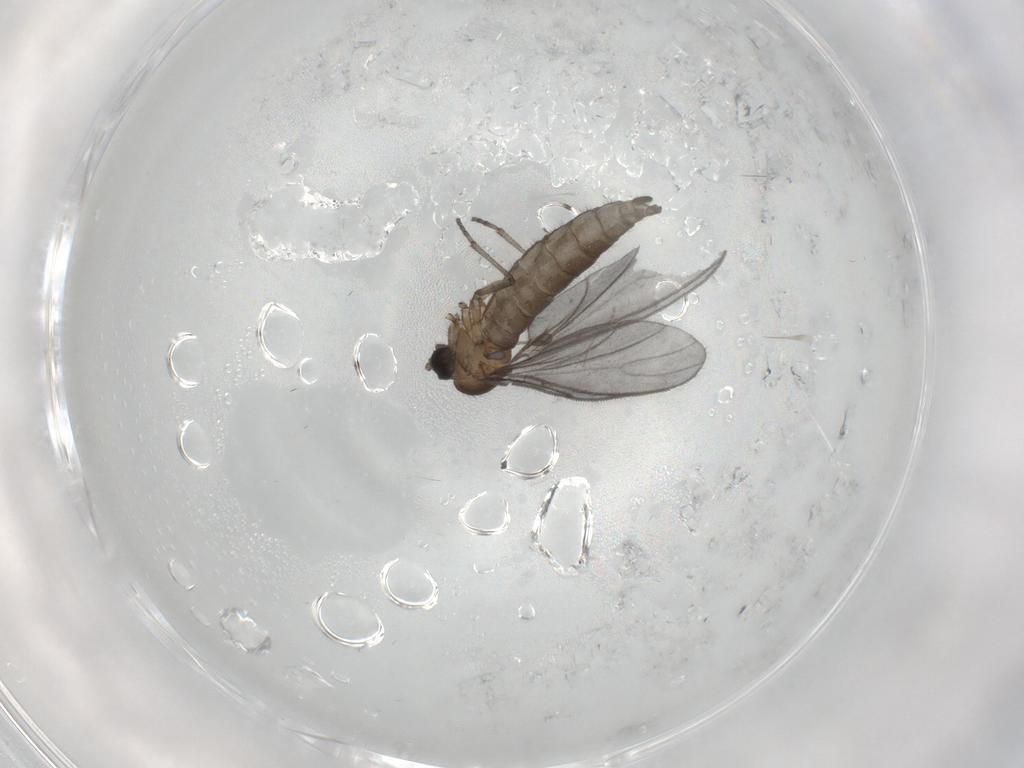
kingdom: Animalia
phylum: Arthropoda
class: Insecta
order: Diptera
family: Sciaridae
